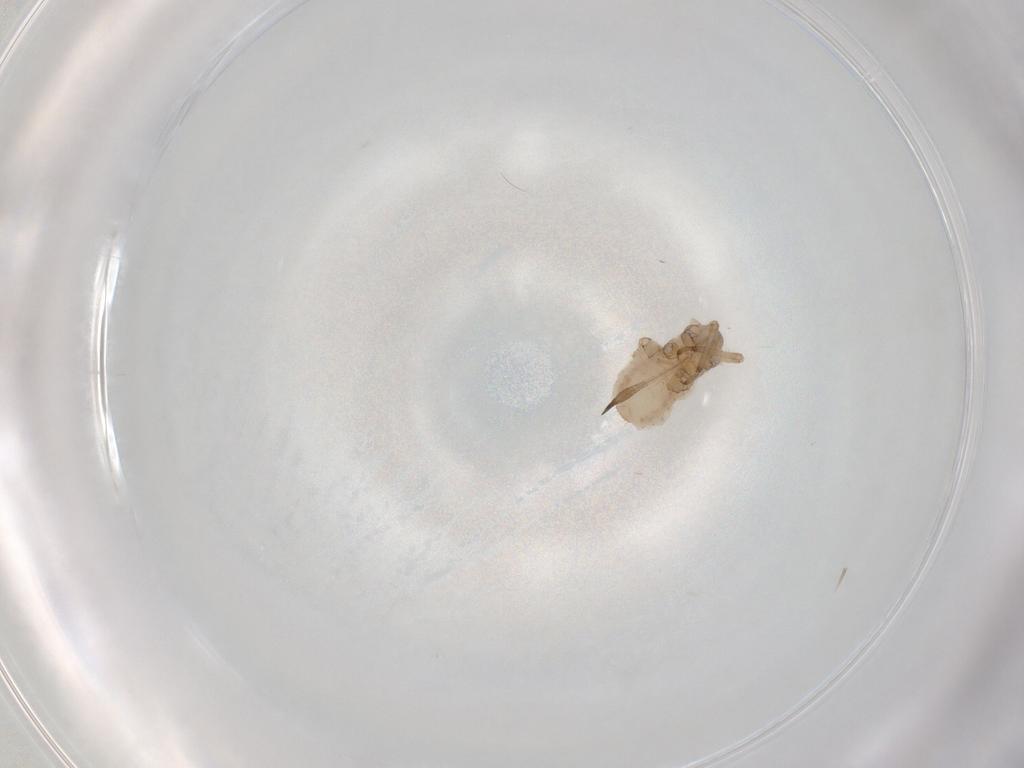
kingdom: Animalia
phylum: Arthropoda
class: Insecta
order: Hemiptera
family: Aphididae
